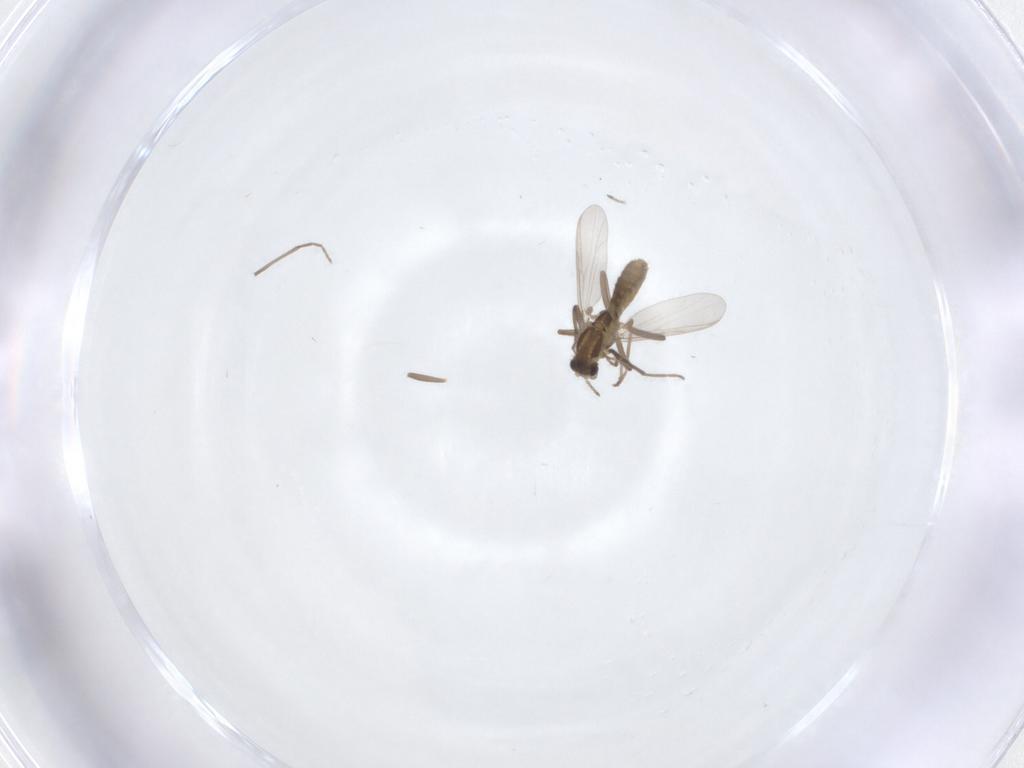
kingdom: Animalia
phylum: Arthropoda
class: Insecta
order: Diptera
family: Chironomidae
